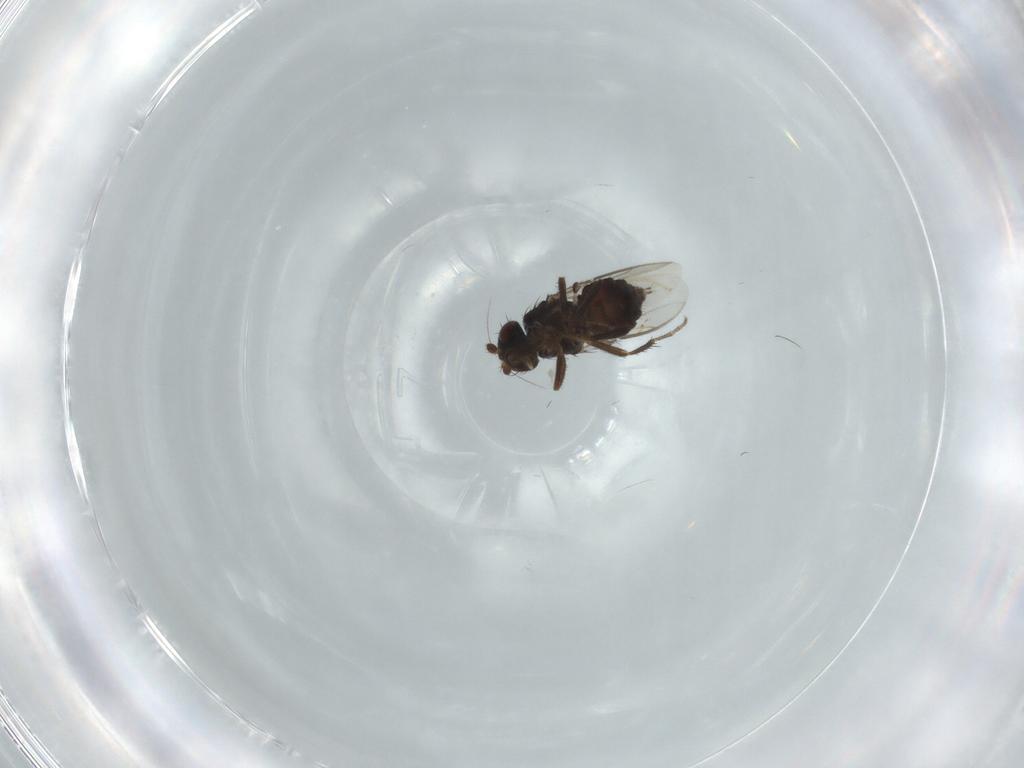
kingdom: Animalia
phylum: Arthropoda
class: Insecta
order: Diptera
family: Sphaeroceridae
